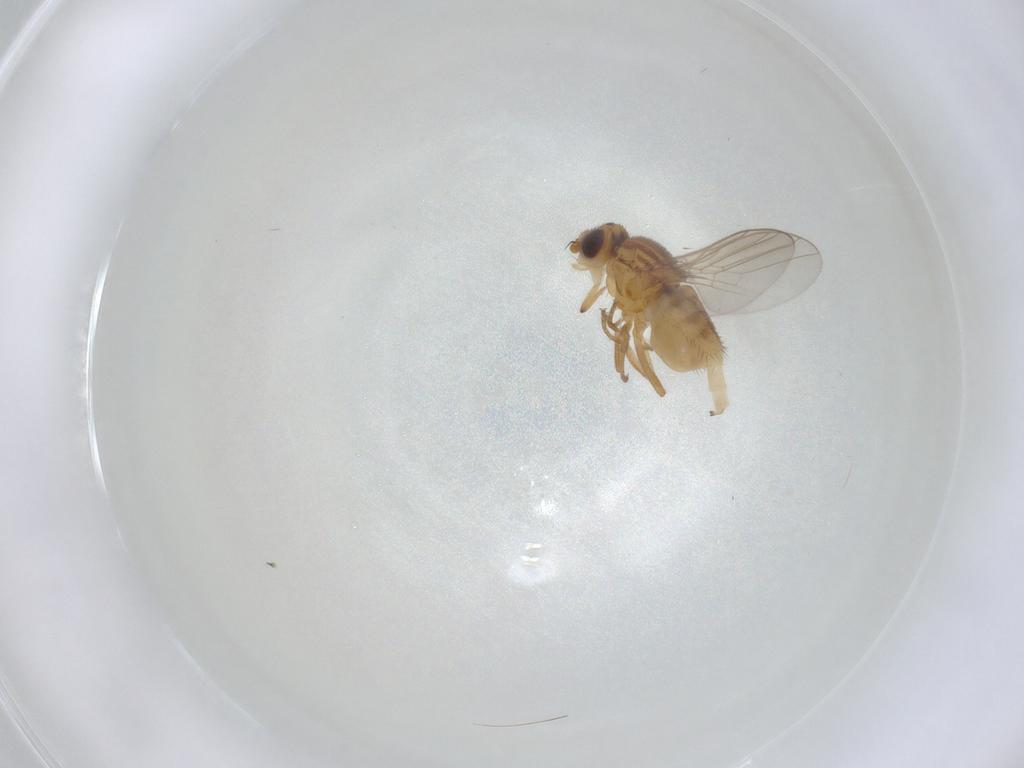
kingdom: Animalia
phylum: Arthropoda
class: Insecta
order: Diptera
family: Chloropidae
